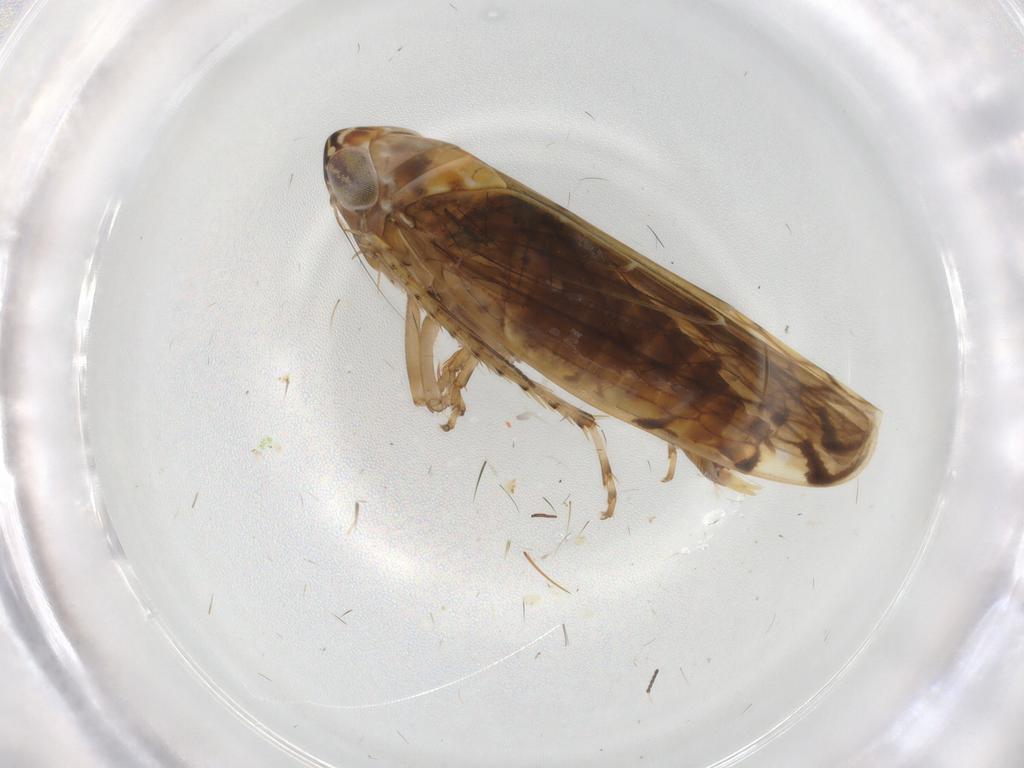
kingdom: Animalia
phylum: Arthropoda
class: Insecta
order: Hemiptera
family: Cicadellidae
